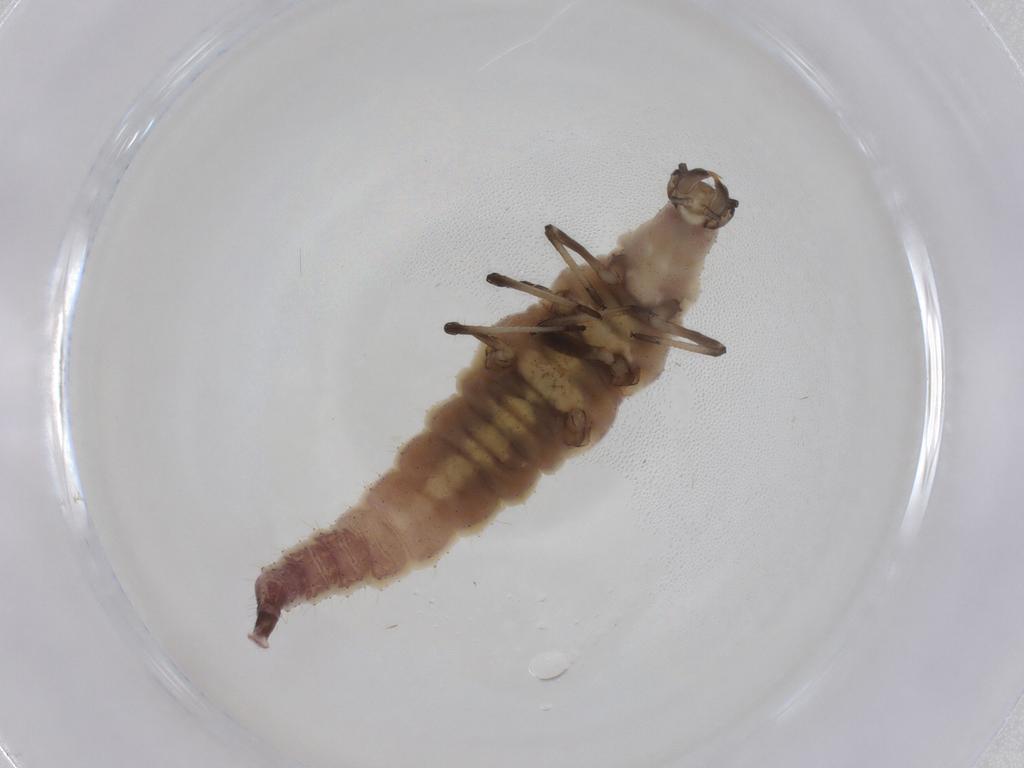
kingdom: Animalia
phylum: Arthropoda
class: Insecta
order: Neuroptera
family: Hemerobiidae
